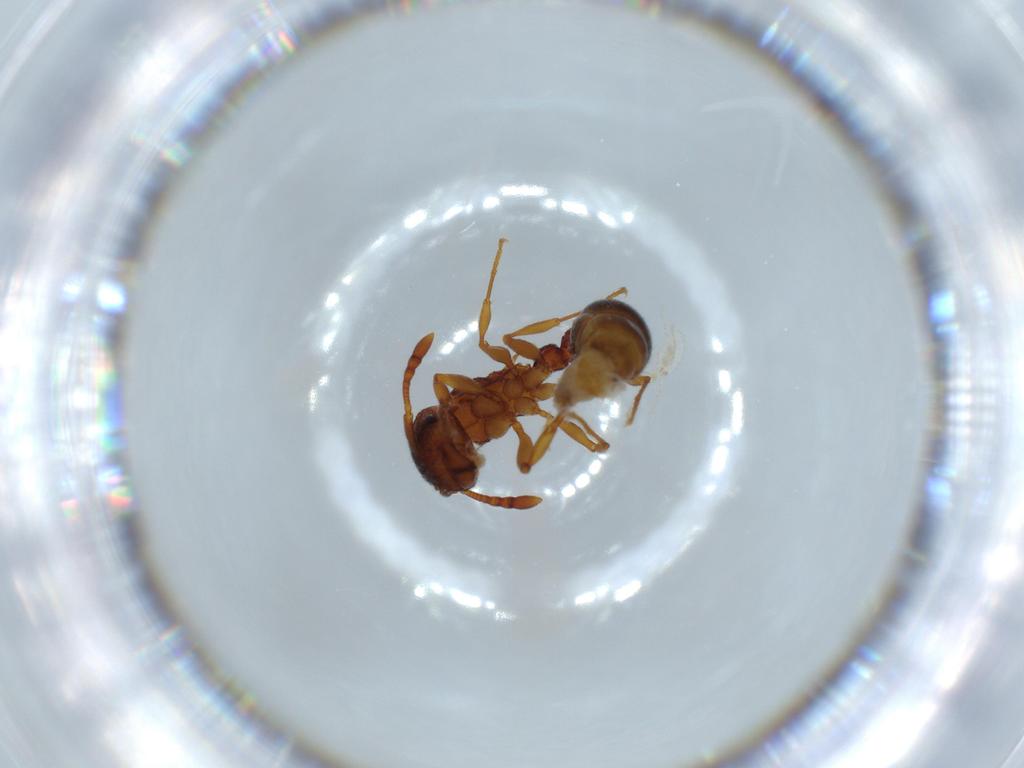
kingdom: Animalia
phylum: Arthropoda
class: Insecta
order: Hymenoptera
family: Formicidae
